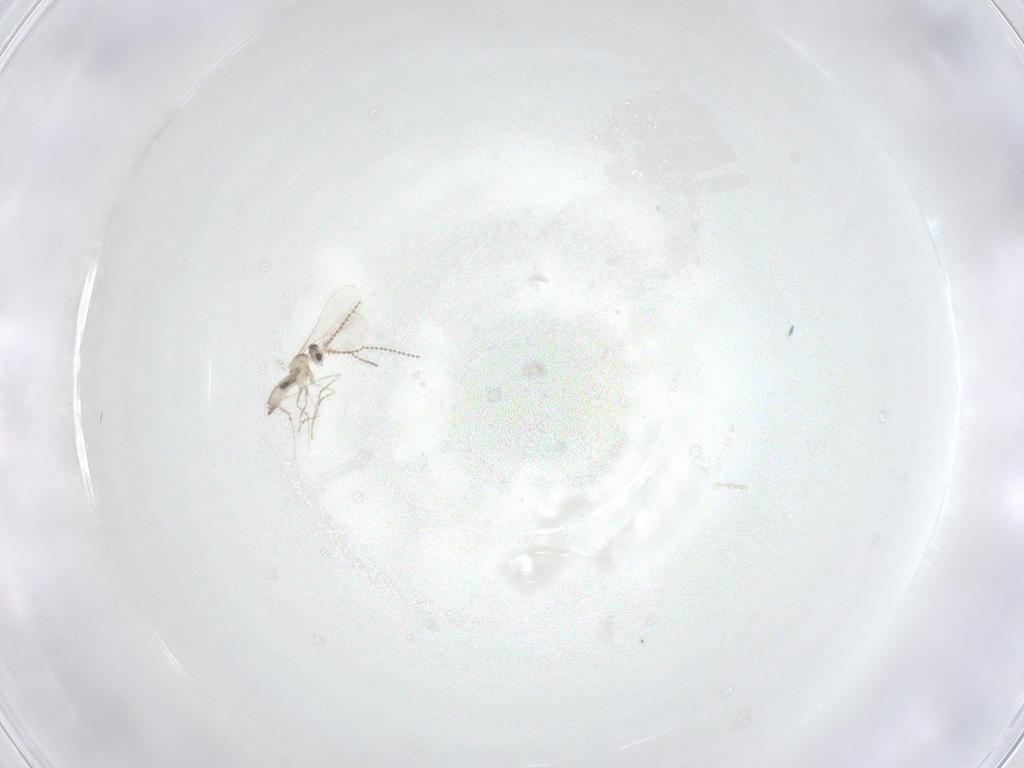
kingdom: Animalia
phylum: Arthropoda
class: Insecta
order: Diptera
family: Cecidomyiidae
